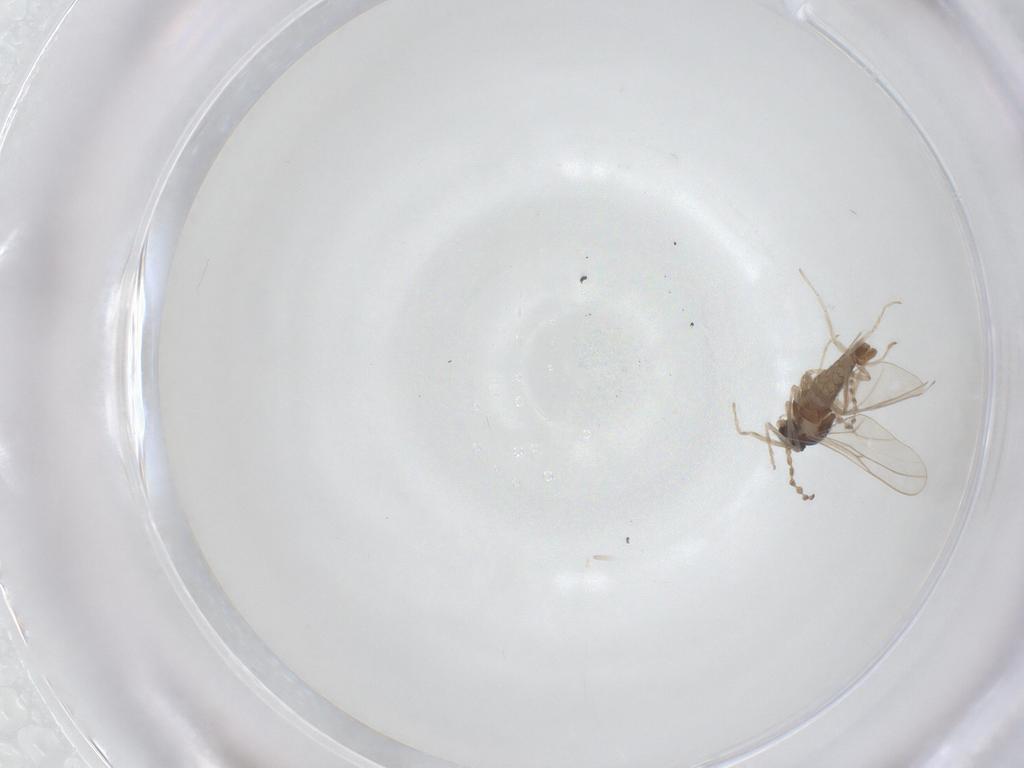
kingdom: Animalia
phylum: Arthropoda
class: Insecta
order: Diptera
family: Cecidomyiidae
